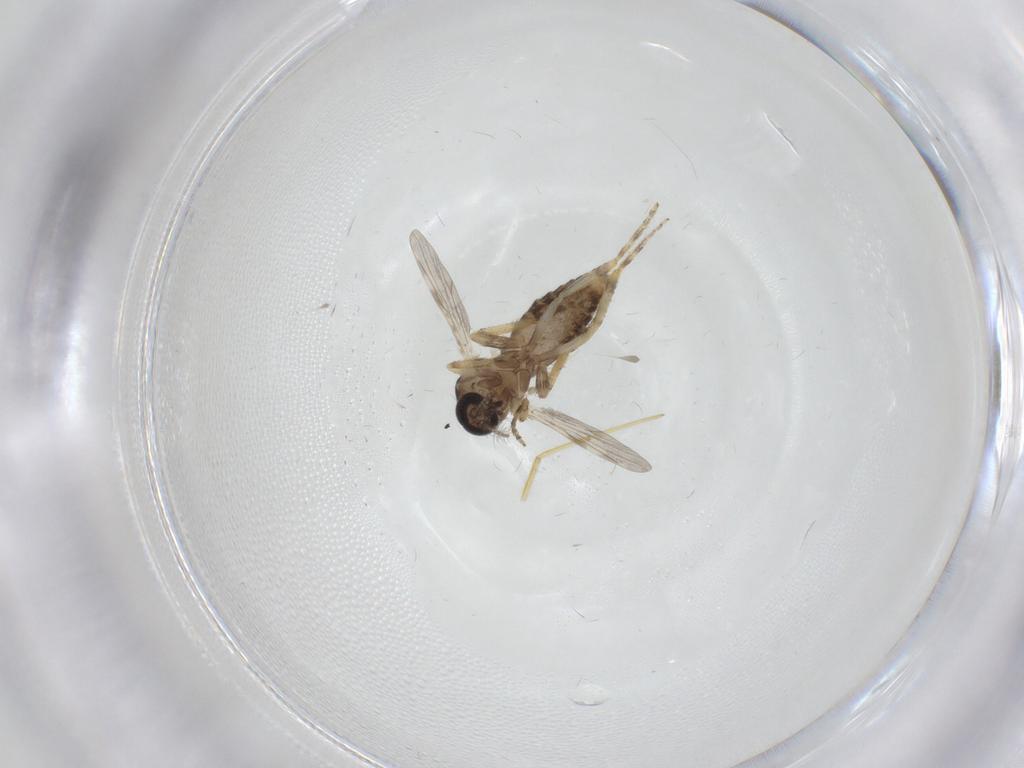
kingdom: Animalia
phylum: Arthropoda
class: Insecta
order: Diptera
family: Ceratopogonidae
